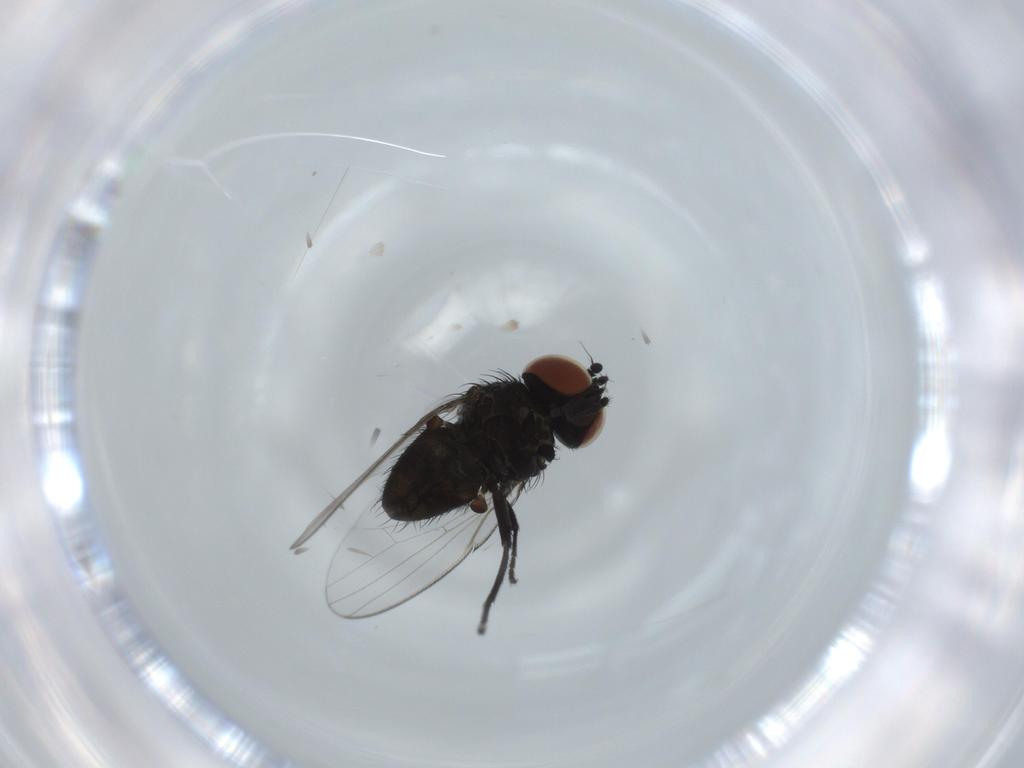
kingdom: Animalia
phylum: Arthropoda
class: Insecta
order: Diptera
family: Milichiidae
